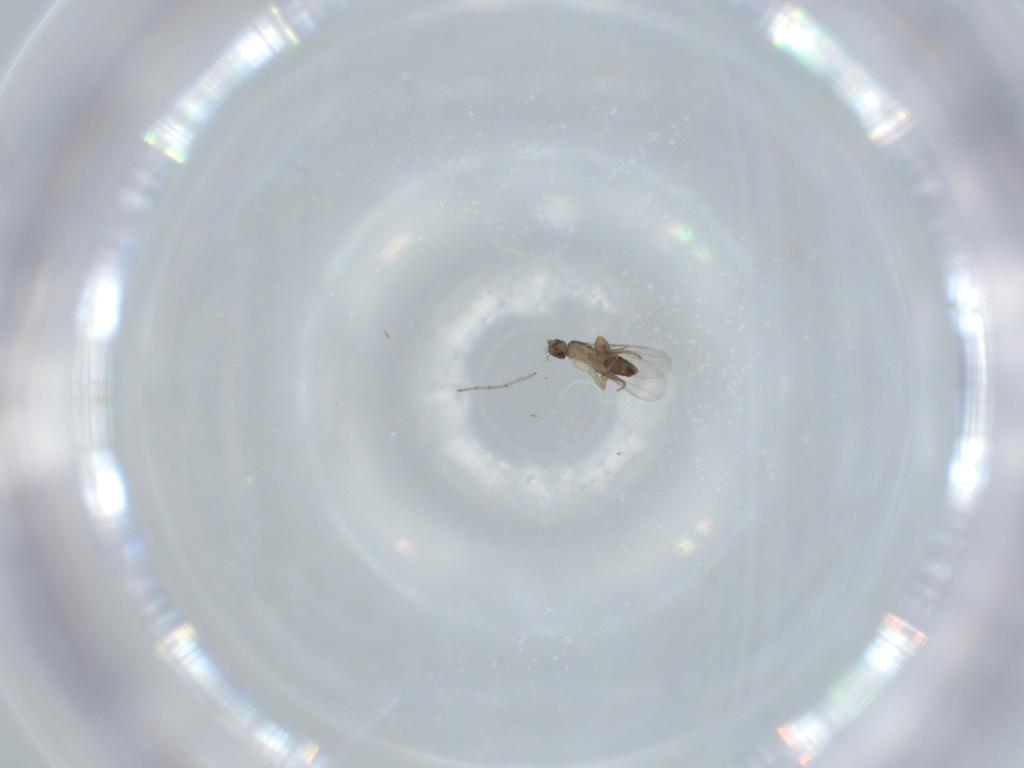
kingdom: Animalia
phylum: Arthropoda
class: Insecta
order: Diptera
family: Chironomidae
